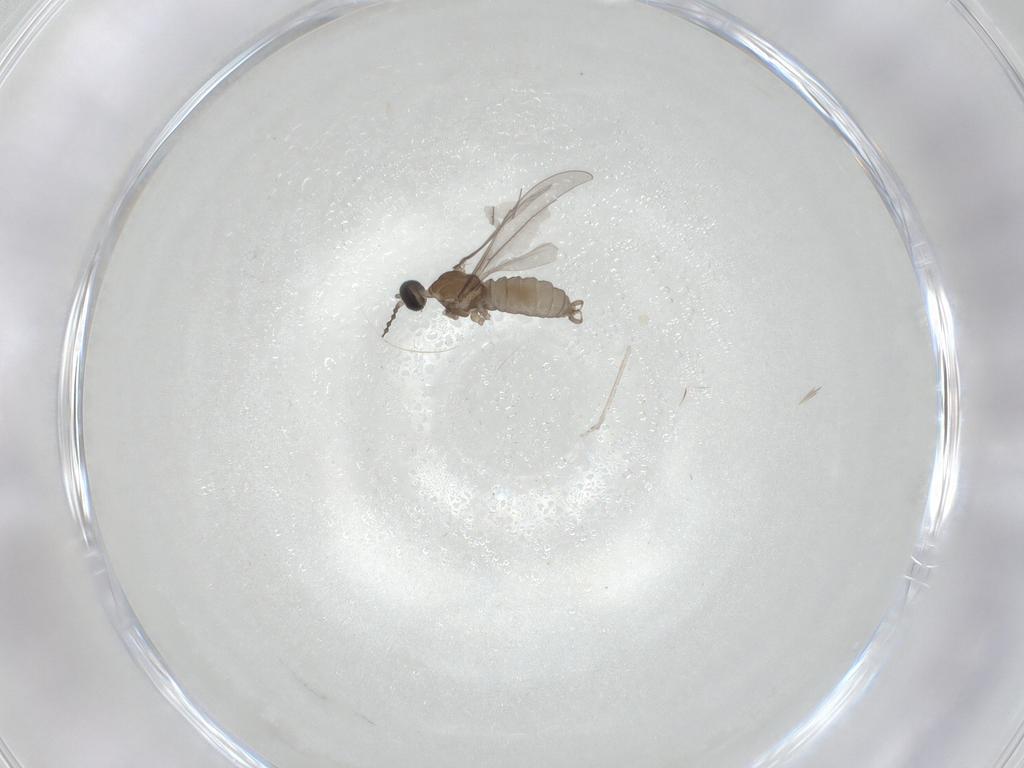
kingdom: Animalia
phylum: Arthropoda
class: Insecta
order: Diptera
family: Cecidomyiidae
